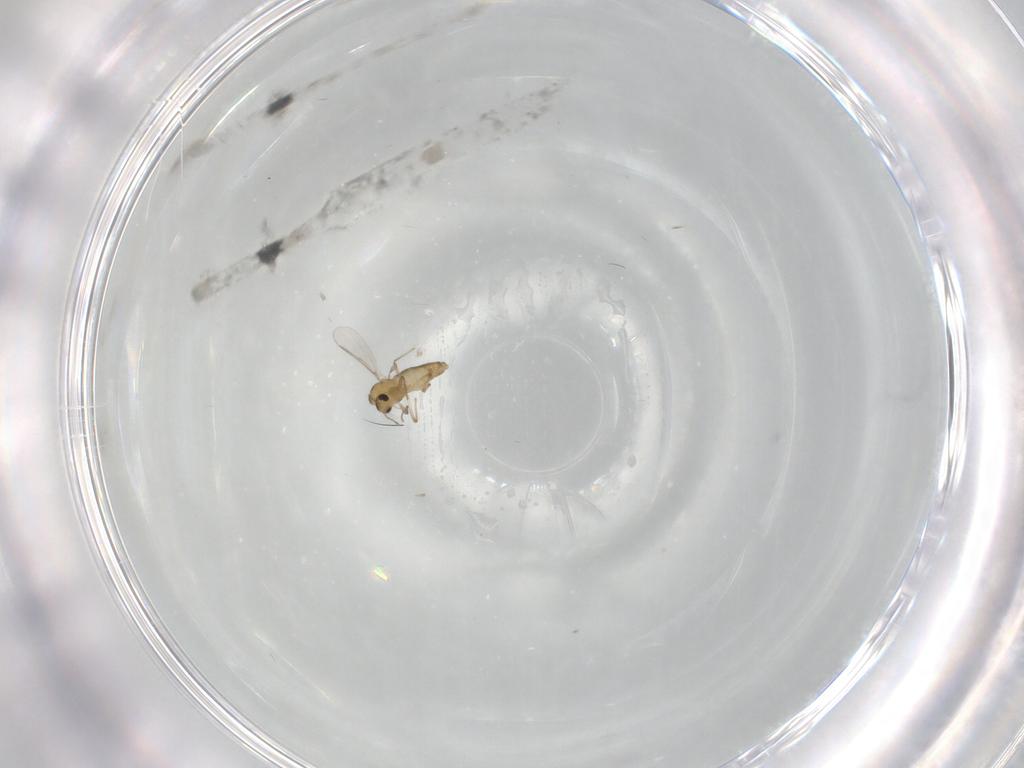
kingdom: Animalia
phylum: Arthropoda
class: Insecta
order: Diptera
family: Chironomidae
